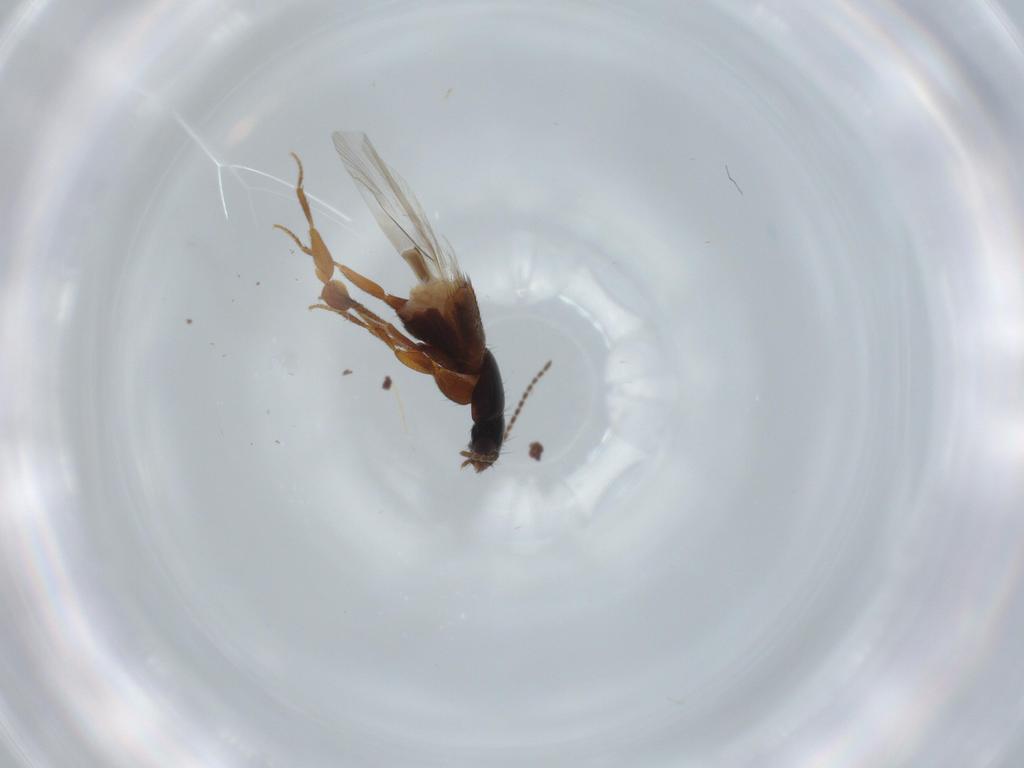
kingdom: Animalia
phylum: Arthropoda
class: Insecta
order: Coleoptera
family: Staphylinidae
